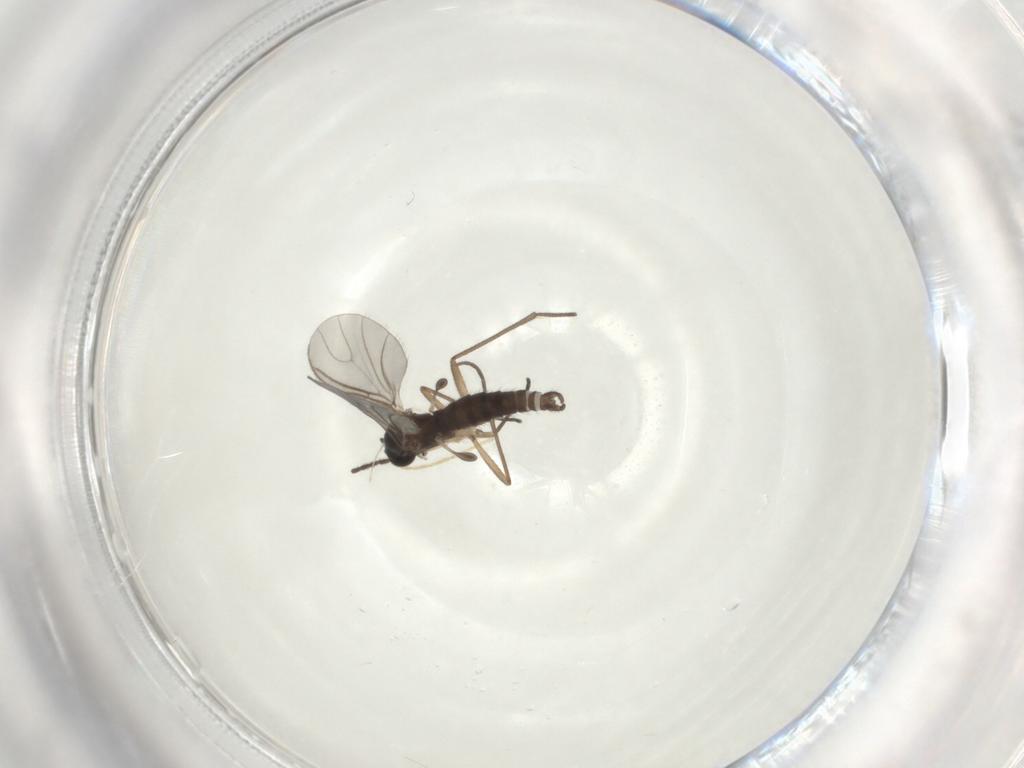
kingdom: Animalia
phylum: Arthropoda
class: Insecta
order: Diptera
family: Sciaridae
